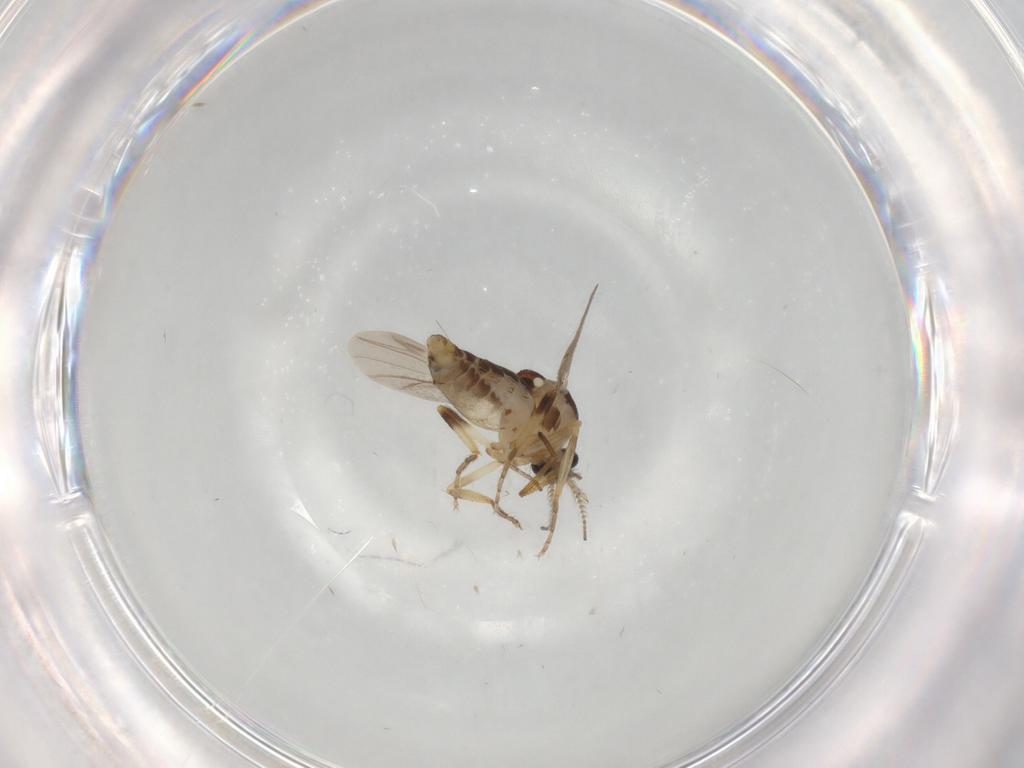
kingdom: Animalia
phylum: Arthropoda
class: Insecta
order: Diptera
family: Ceratopogonidae
